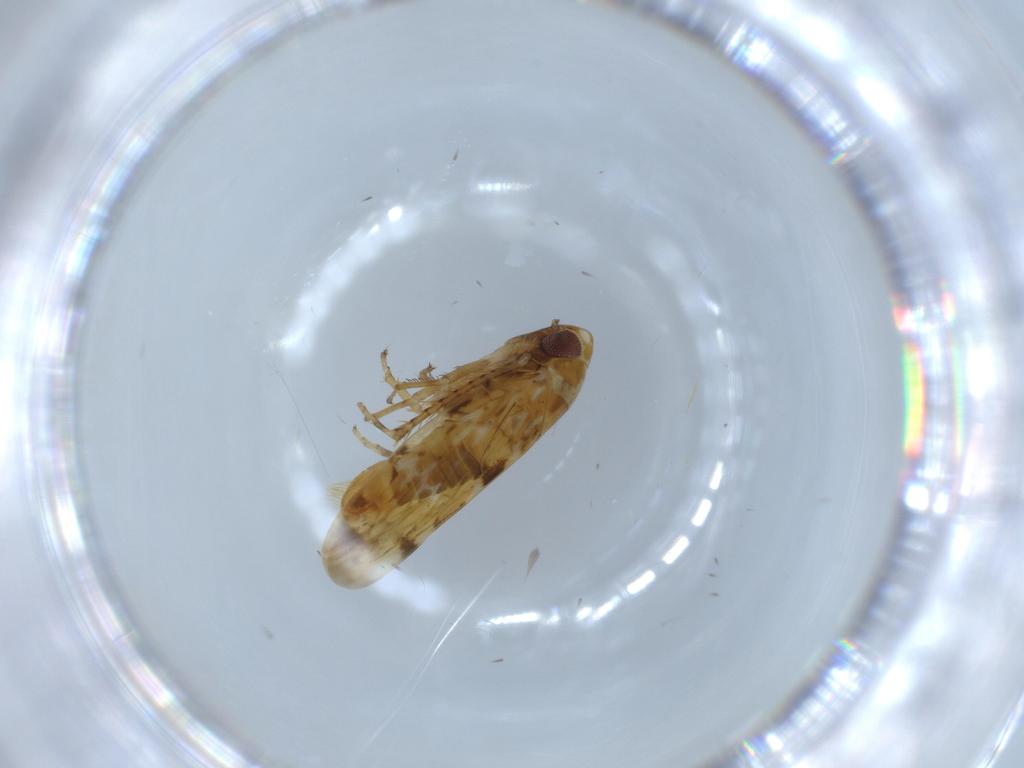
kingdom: Animalia
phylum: Arthropoda
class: Insecta
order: Hemiptera
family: Cicadellidae
